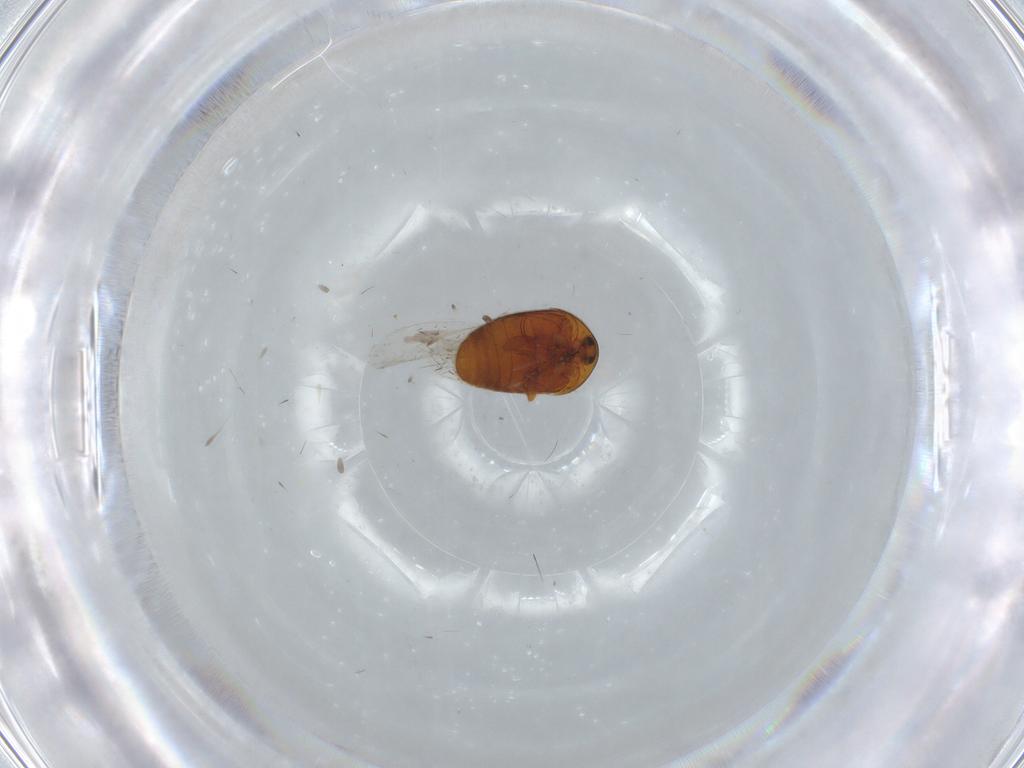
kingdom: Animalia
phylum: Arthropoda
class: Insecta
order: Coleoptera
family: Corylophidae
